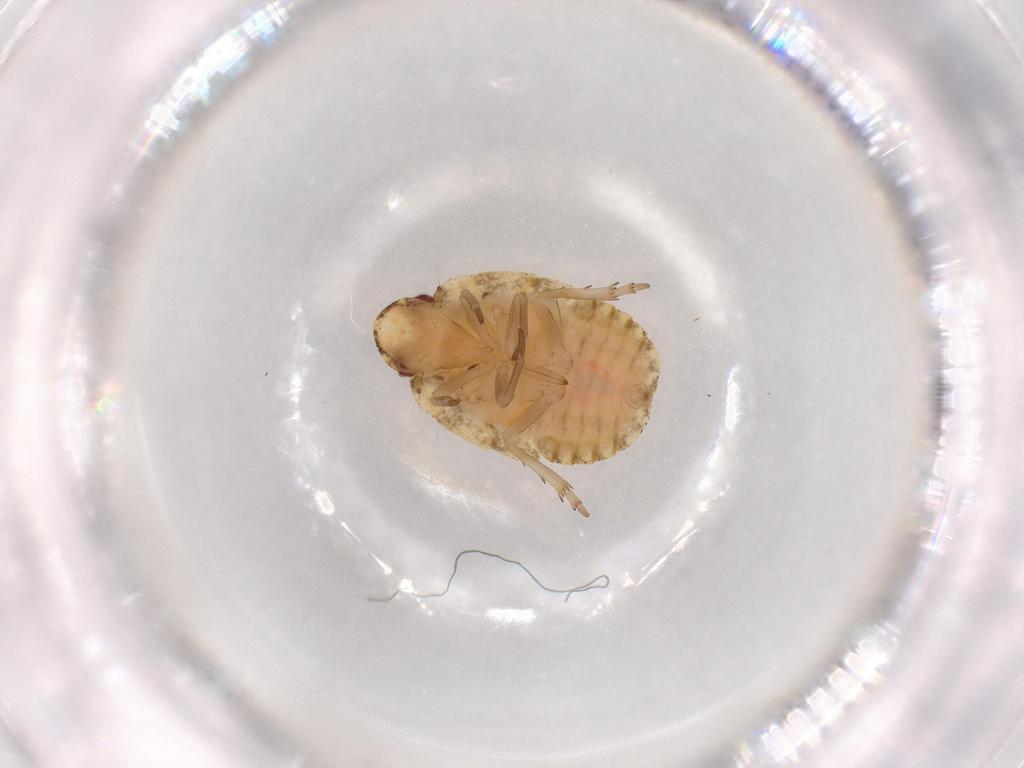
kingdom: Animalia
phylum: Arthropoda
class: Insecta
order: Hemiptera
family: Flatidae
